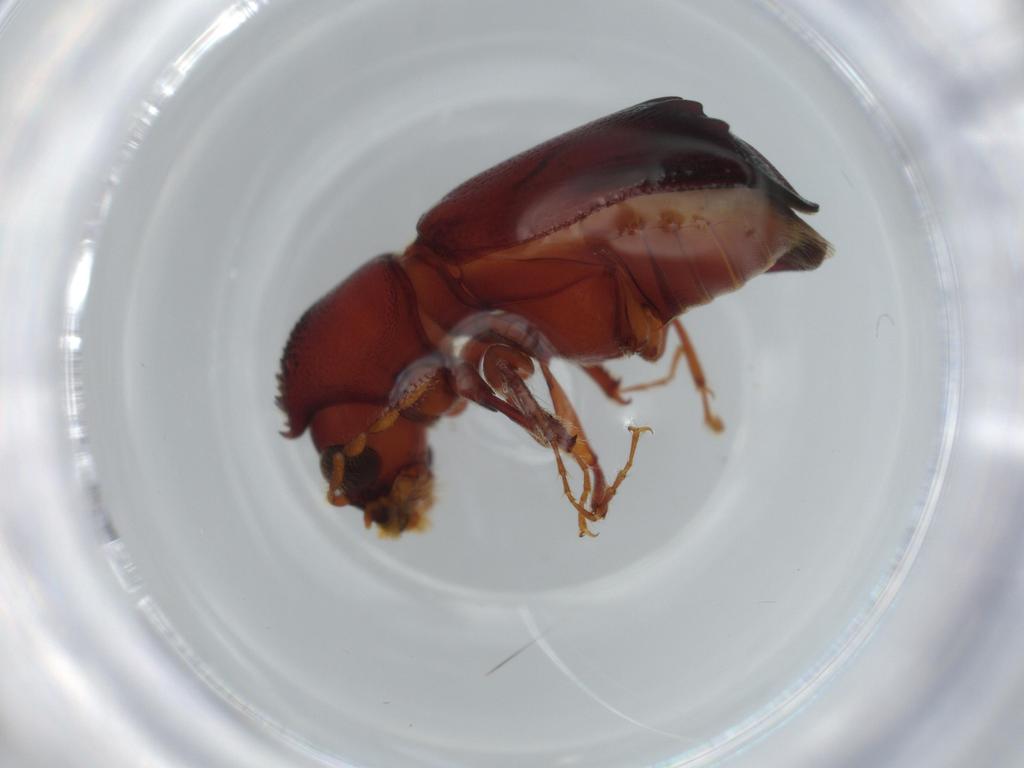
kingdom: Animalia
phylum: Arthropoda
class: Insecta
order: Coleoptera
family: Bostrichidae
